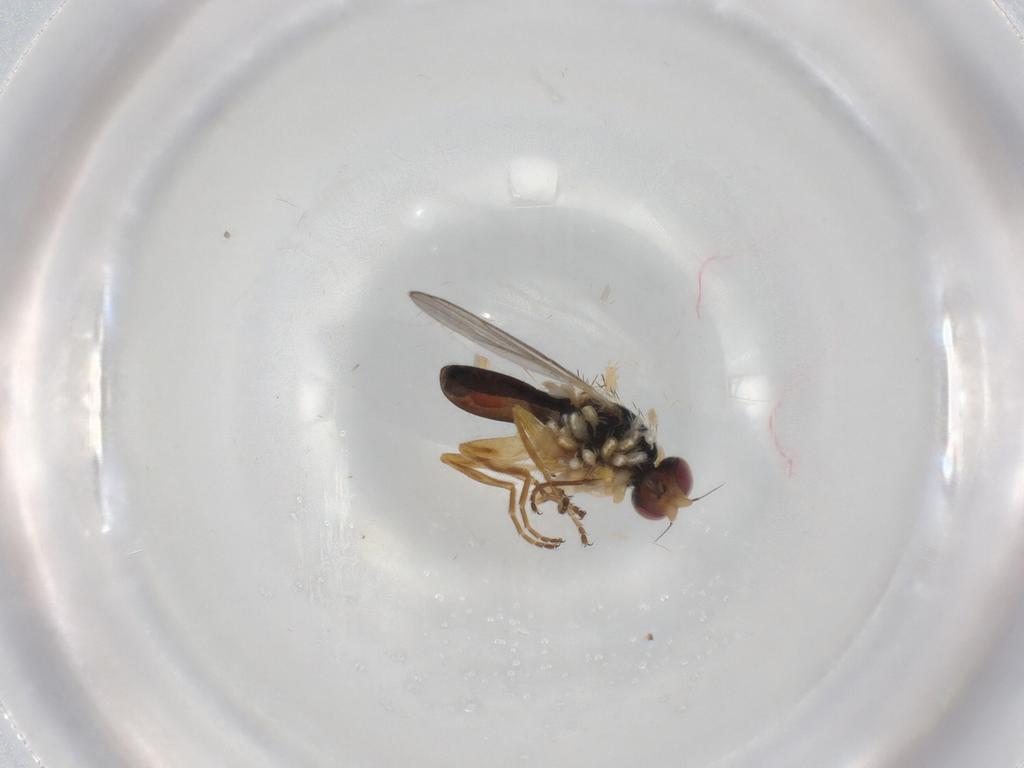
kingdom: Animalia
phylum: Arthropoda
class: Insecta
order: Diptera
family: Chloropidae
